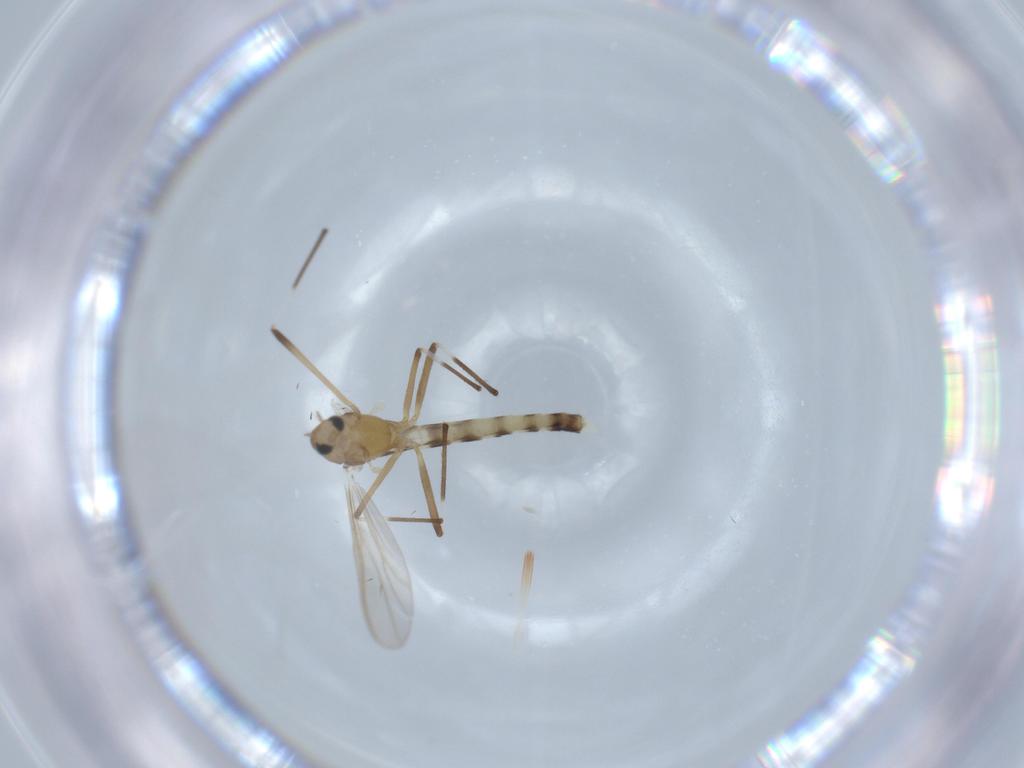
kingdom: Animalia
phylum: Arthropoda
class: Insecta
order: Diptera
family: Chironomidae
